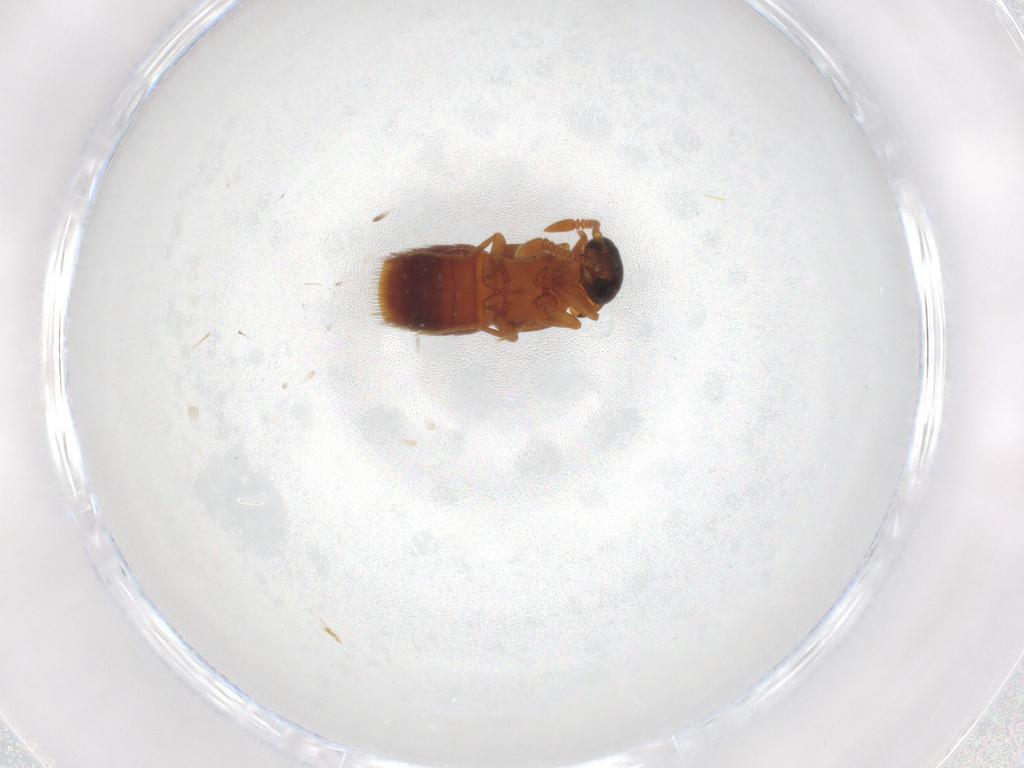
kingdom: Animalia
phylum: Arthropoda
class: Insecta
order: Coleoptera
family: Staphylinidae
